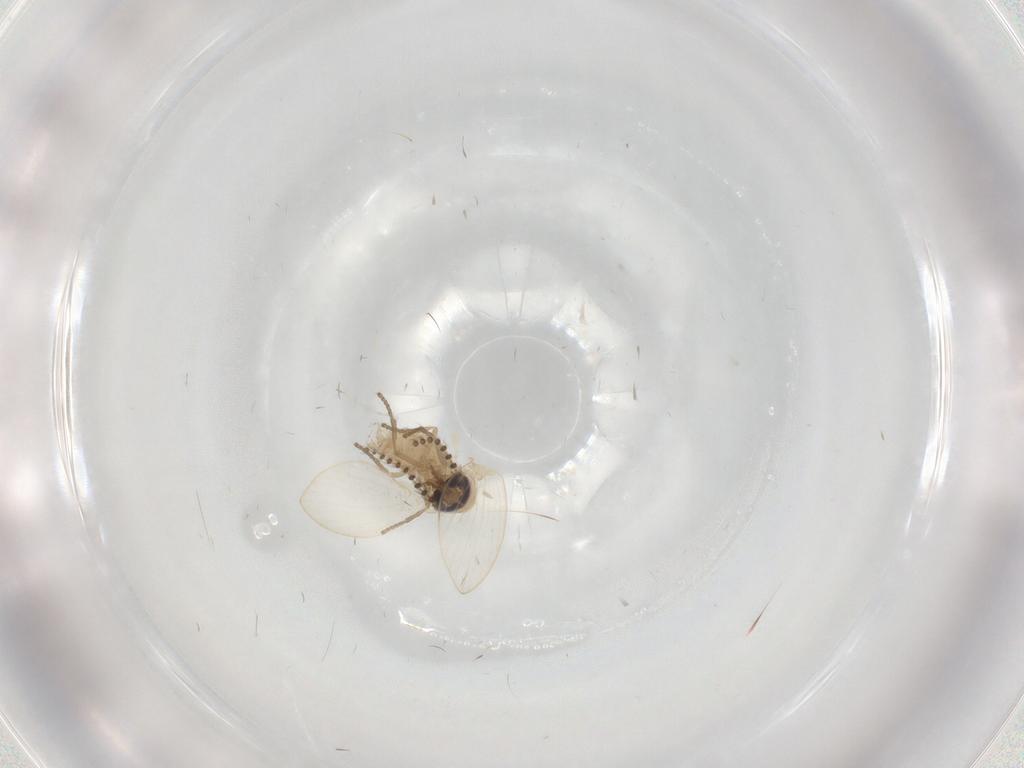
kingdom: Animalia
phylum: Arthropoda
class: Insecta
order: Diptera
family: Psychodidae
